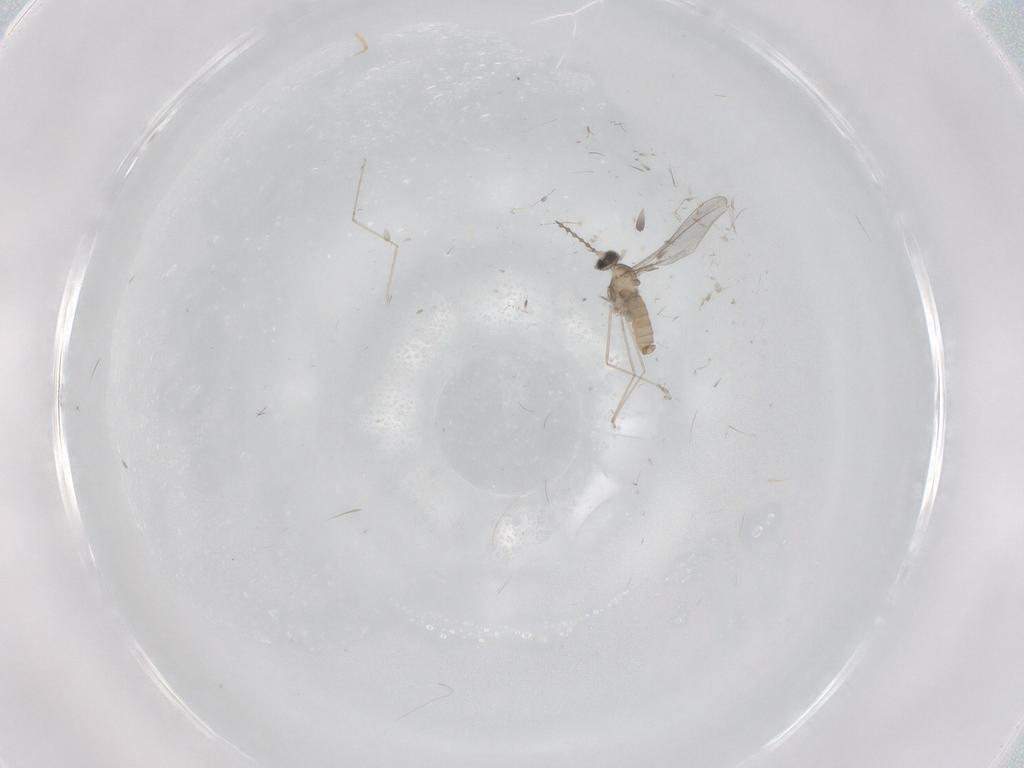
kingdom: Animalia
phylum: Arthropoda
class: Insecta
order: Diptera
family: Cecidomyiidae
